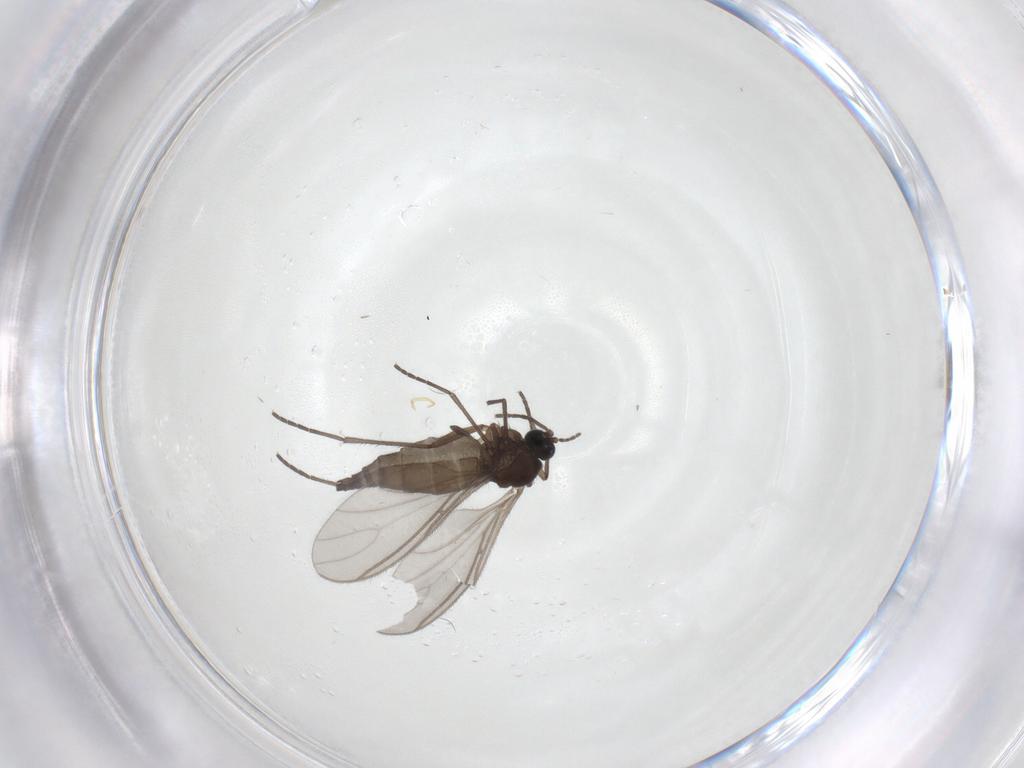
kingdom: Animalia
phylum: Arthropoda
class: Insecta
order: Diptera
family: Sciaridae
